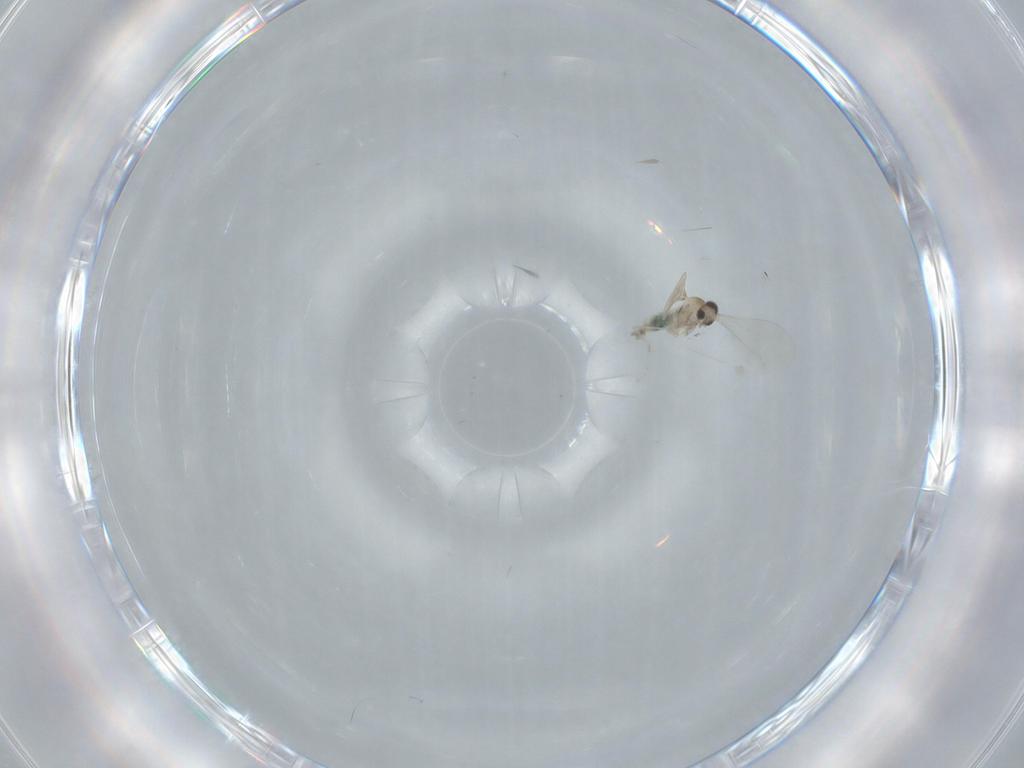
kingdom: Animalia
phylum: Arthropoda
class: Insecta
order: Diptera
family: Cecidomyiidae
